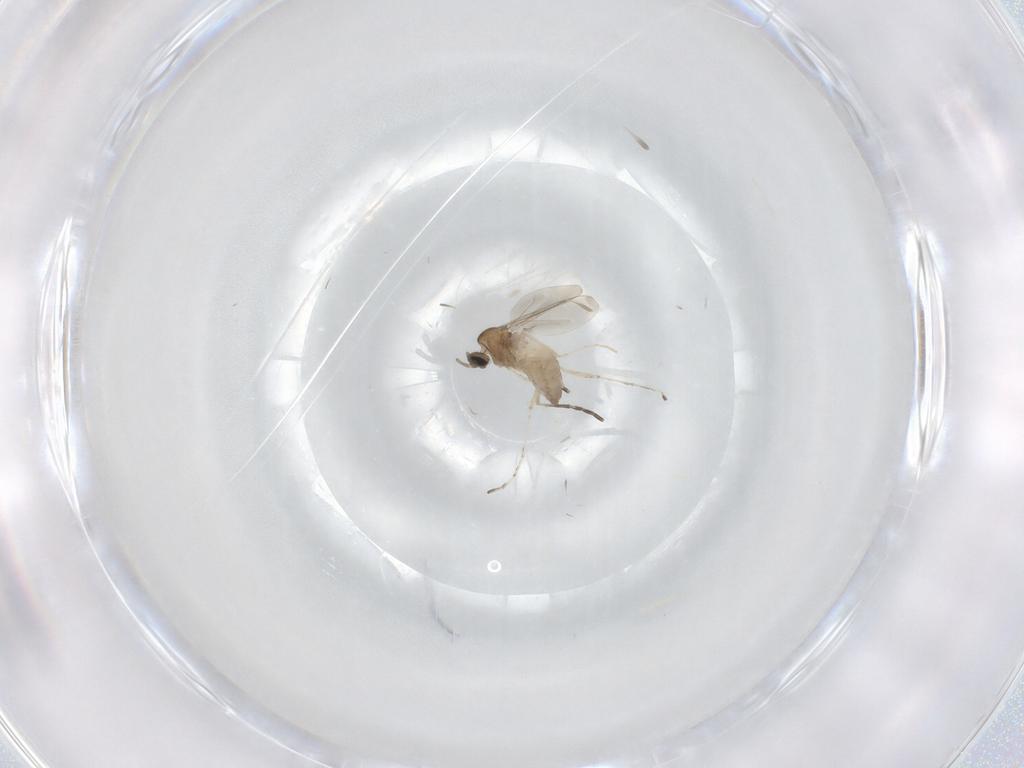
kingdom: Animalia
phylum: Arthropoda
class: Insecta
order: Diptera
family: Cecidomyiidae
